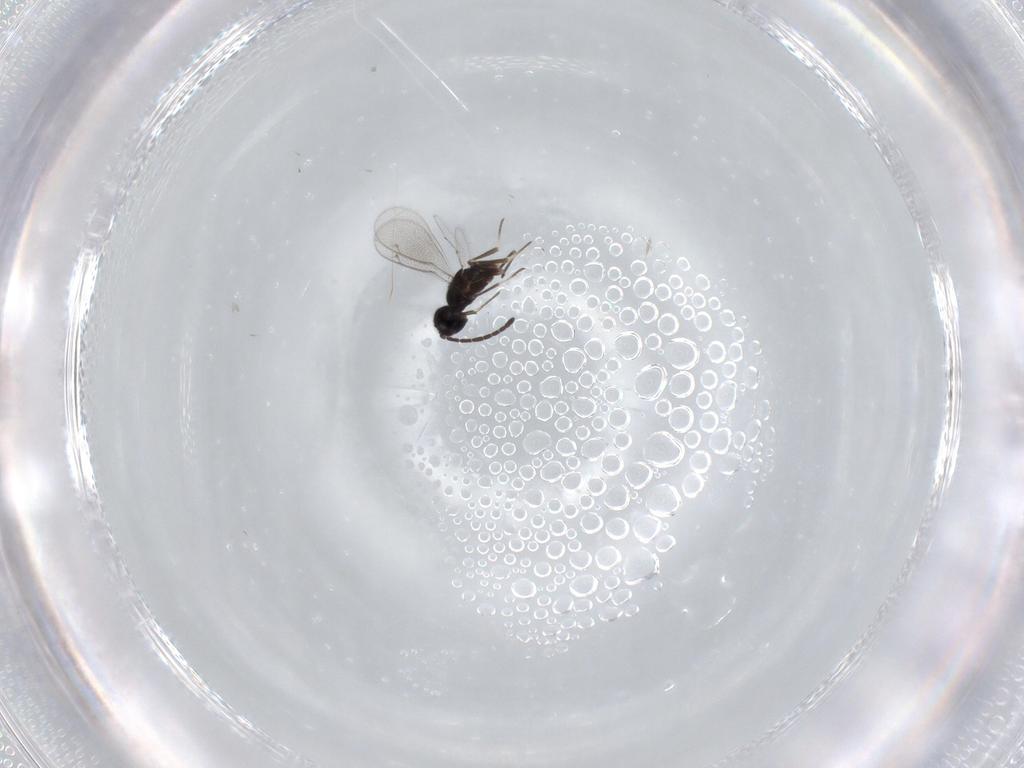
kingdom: Animalia
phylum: Arthropoda
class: Insecta
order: Hymenoptera
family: Eupelmidae
